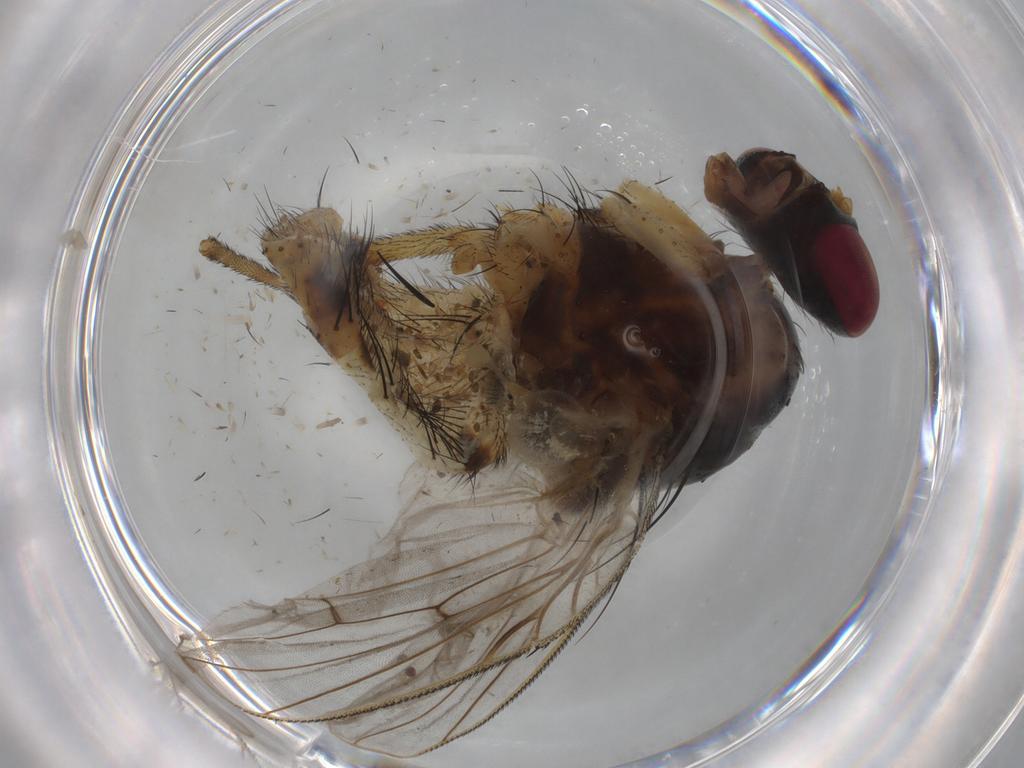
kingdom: Animalia
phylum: Arthropoda
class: Insecta
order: Diptera
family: Muscidae
